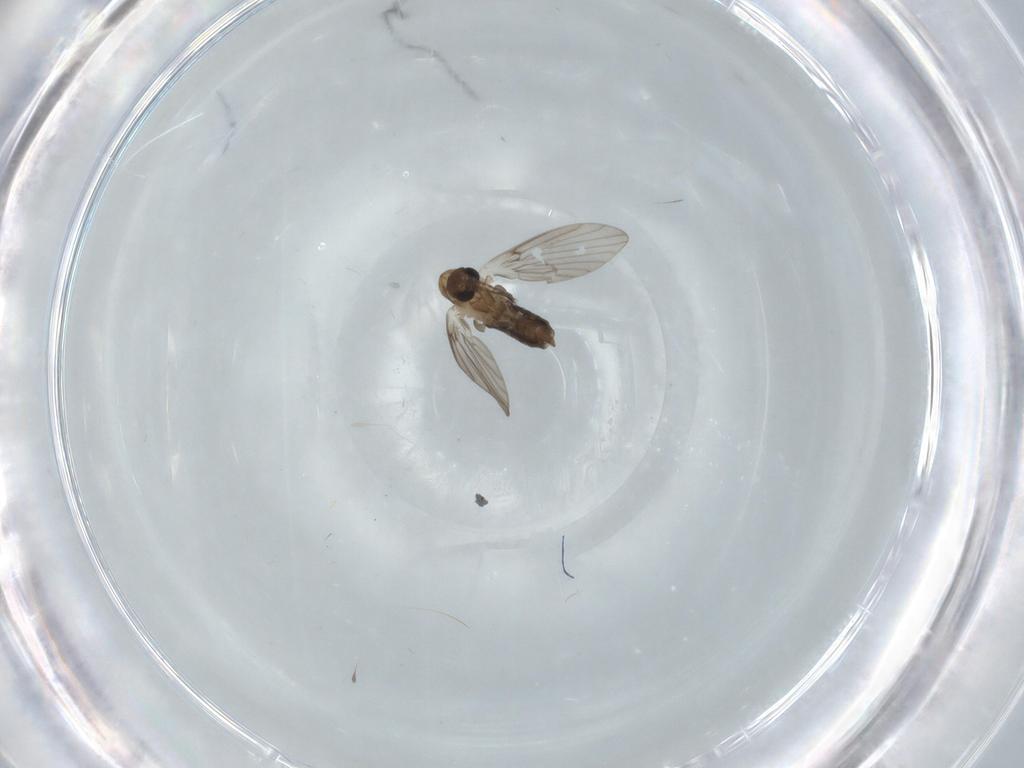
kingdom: Animalia
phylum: Arthropoda
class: Insecta
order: Diptera
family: Psychodidae
